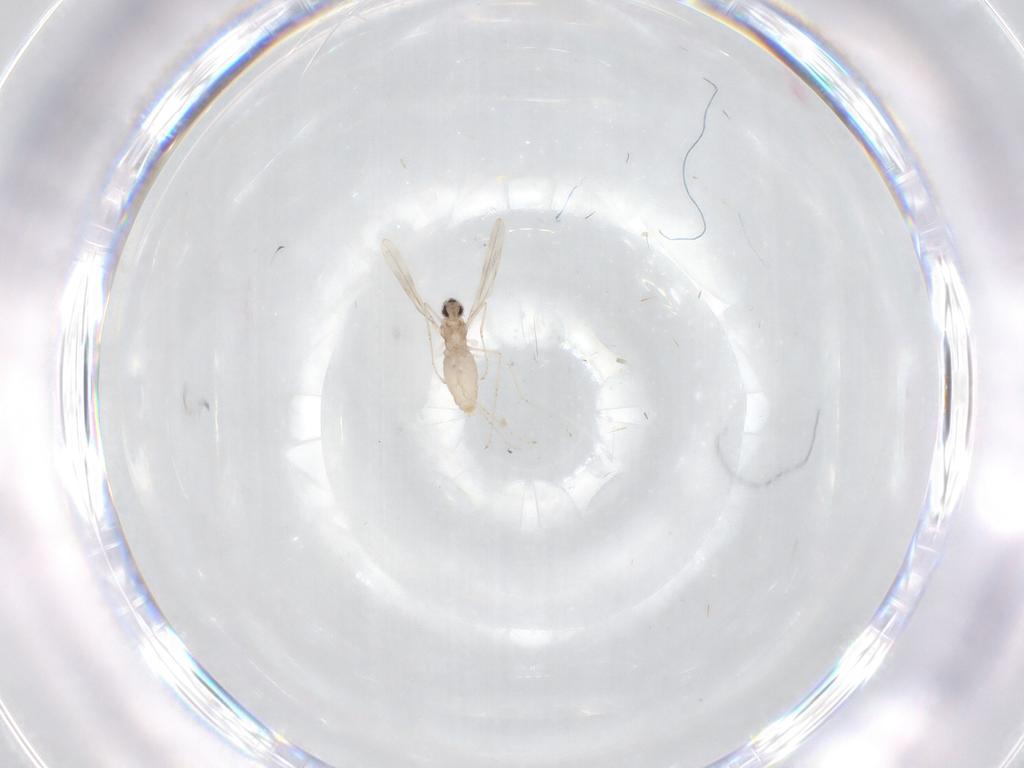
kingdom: Animalia
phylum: Arthropoda
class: Insecta
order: Diptera
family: Chironomidae
